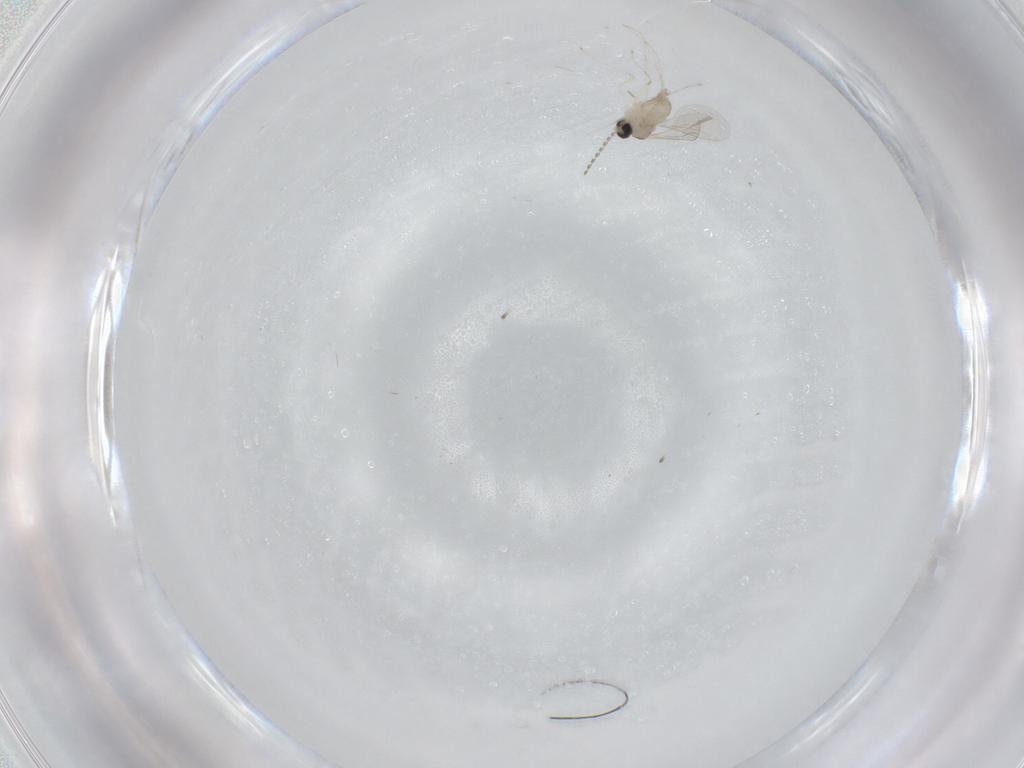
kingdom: Animalia
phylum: Arthropoda
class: Insecta
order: Diptera
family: Cecidomyiidae
